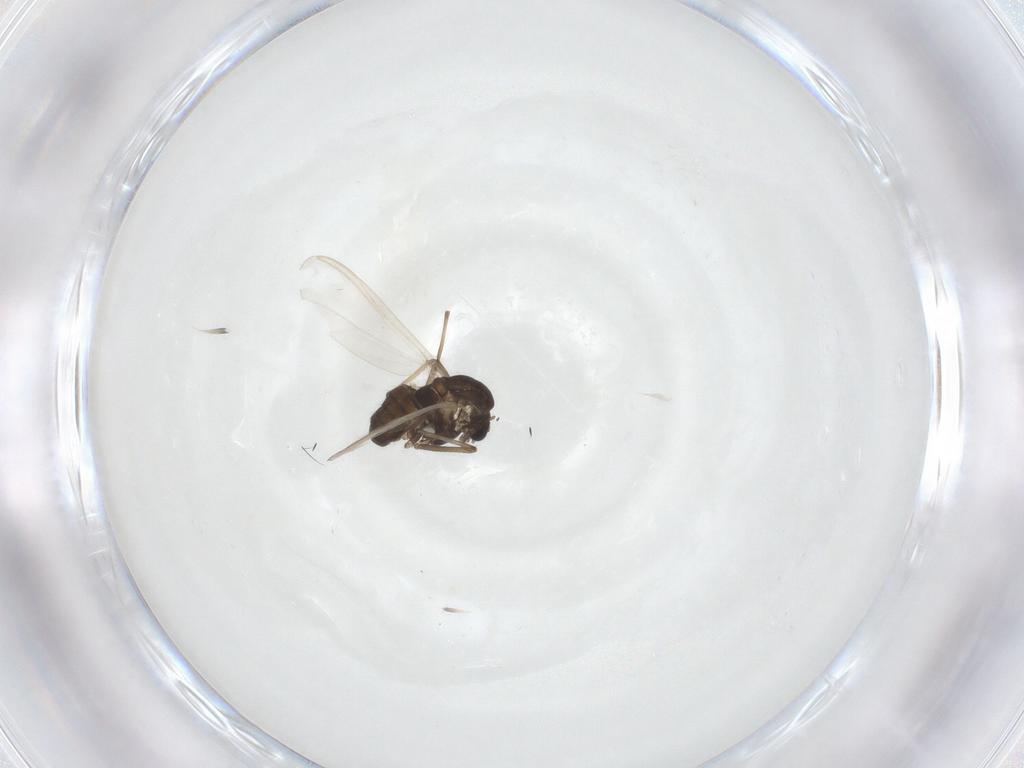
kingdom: Animalia
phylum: Arthropoda
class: Insecta
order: Diptera
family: Chironomidae
